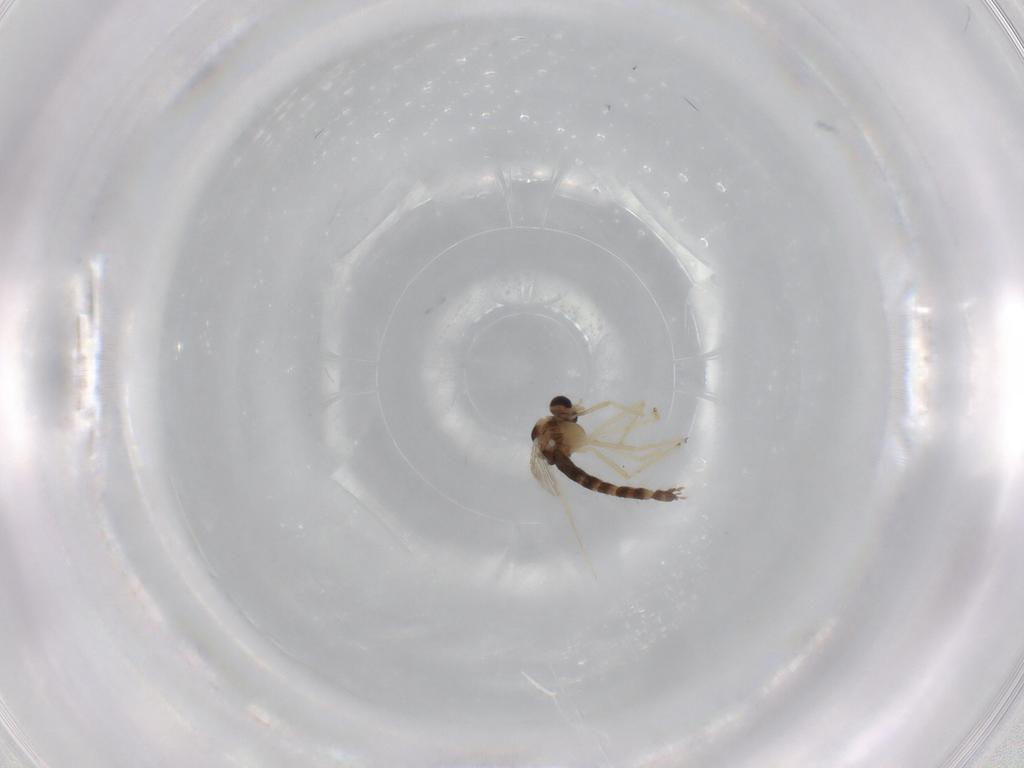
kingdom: Animalia
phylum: Arthropoda
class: Insecta
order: Diptera
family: Chironomidae
